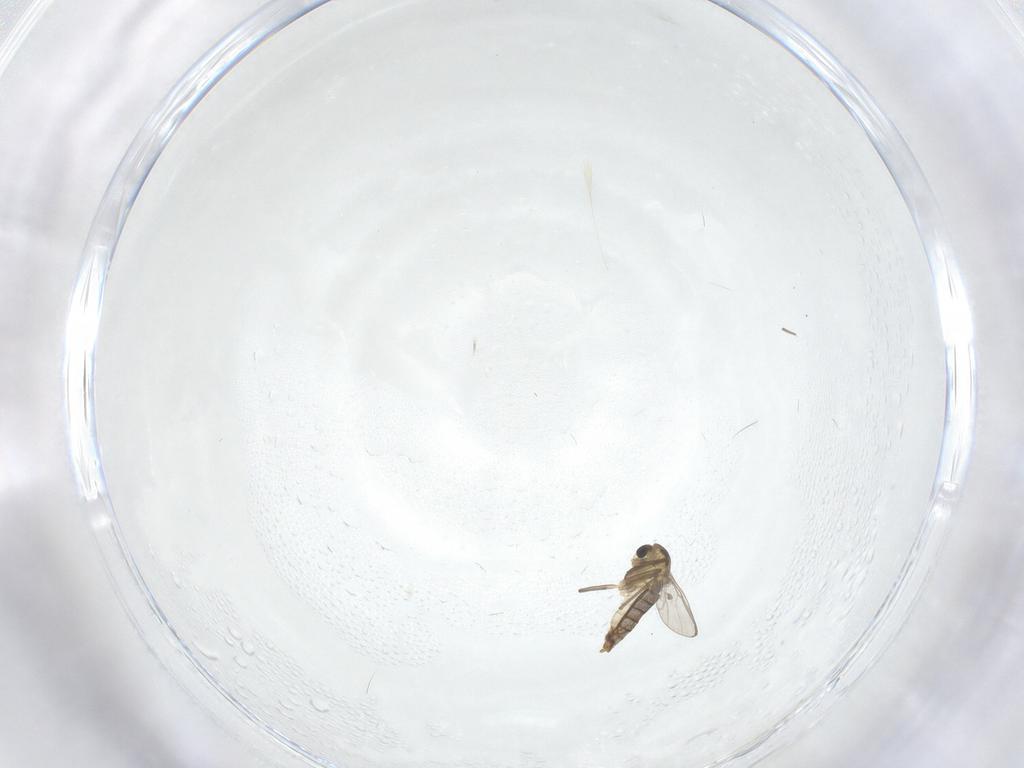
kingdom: Animalia
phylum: Arthropoda
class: Insecta
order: Diptera
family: Chironomidae
